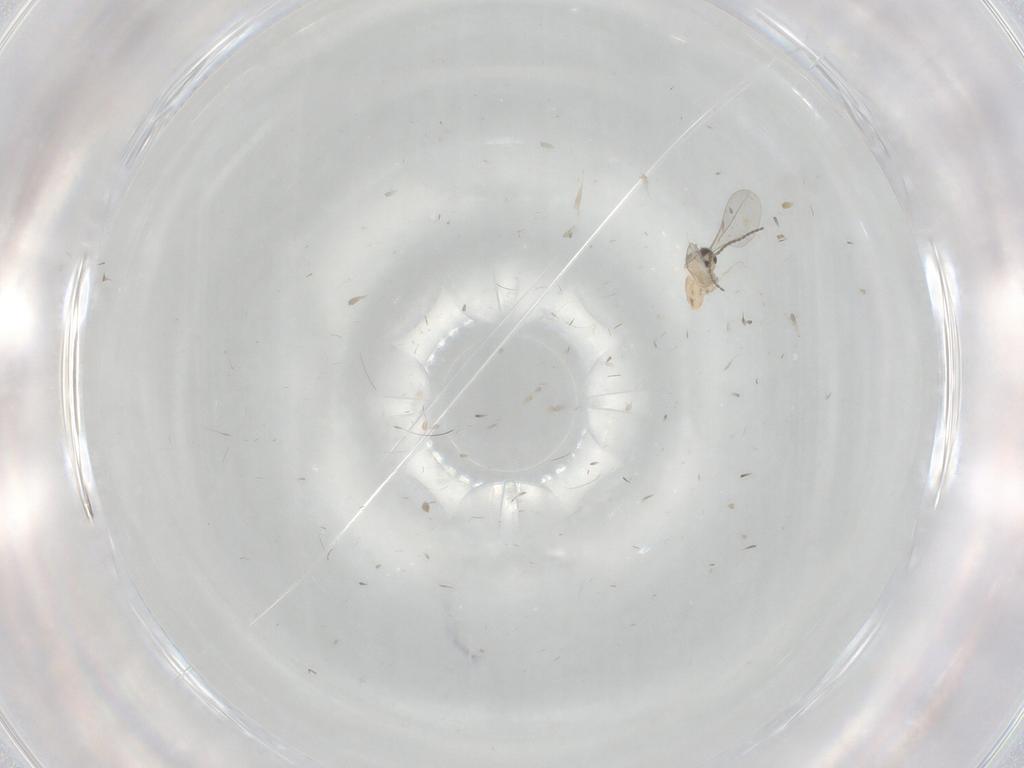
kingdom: Animalia
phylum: Arthropoda
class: Insecta
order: Diptera
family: Cecidomyiidae
